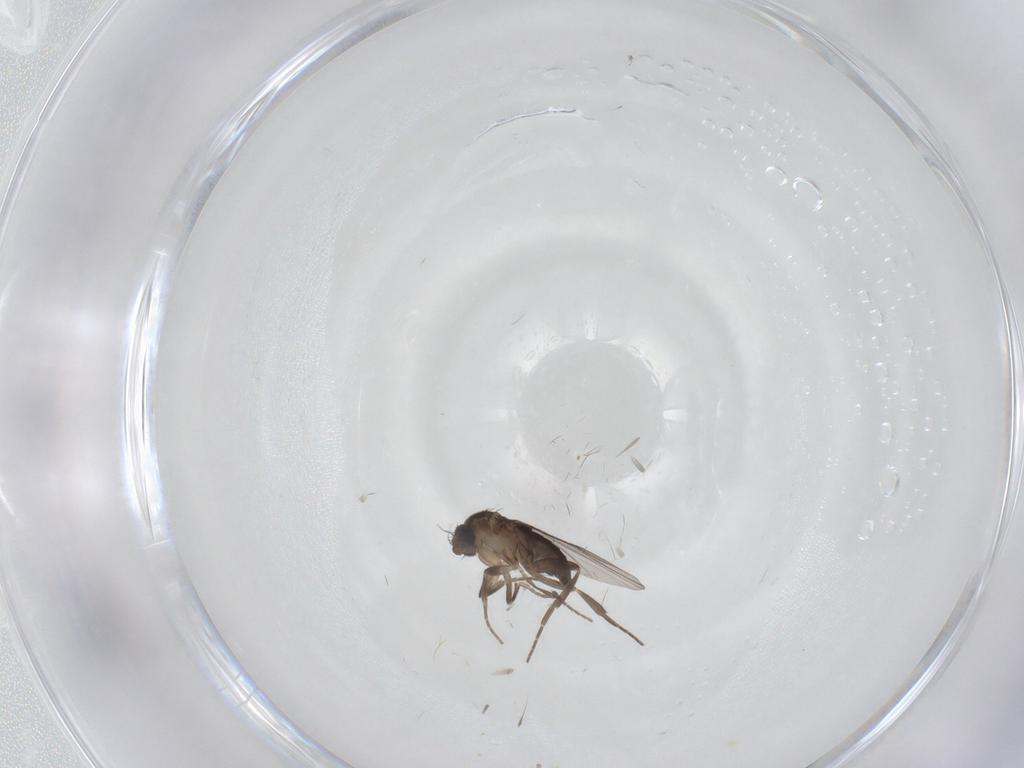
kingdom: Animalia
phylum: Arthropoda
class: Insecta
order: Diptera
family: Phoridae
